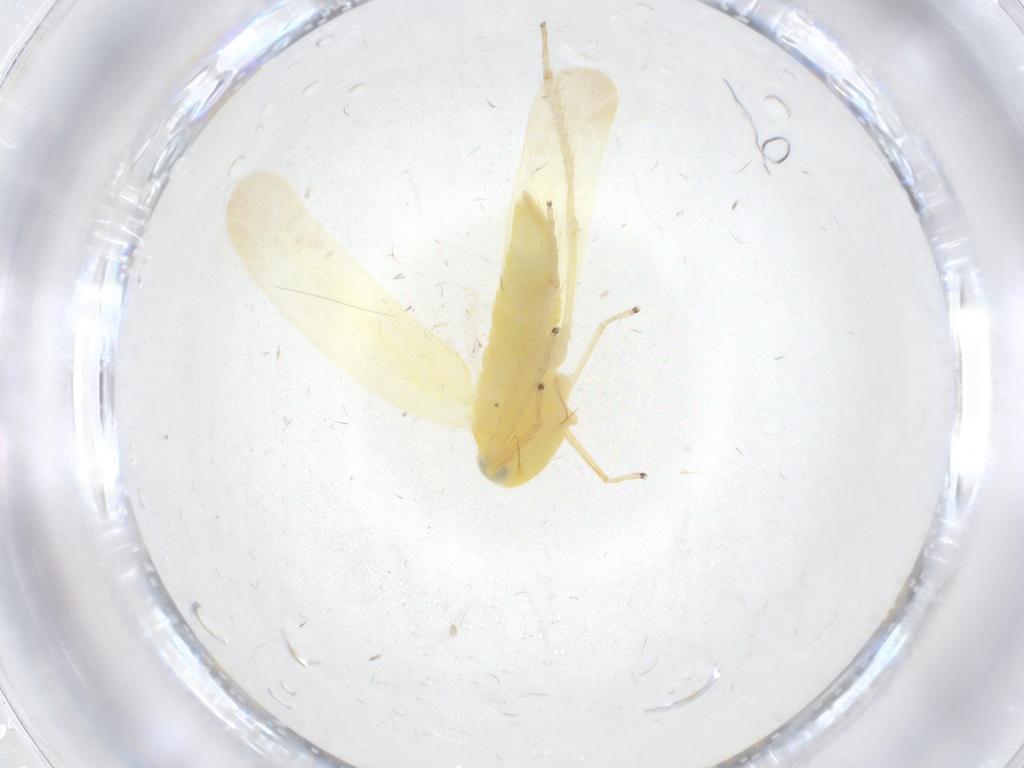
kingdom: Animalia
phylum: Arthropoda
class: Insecta
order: Hemiptera
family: Cicadellidae
